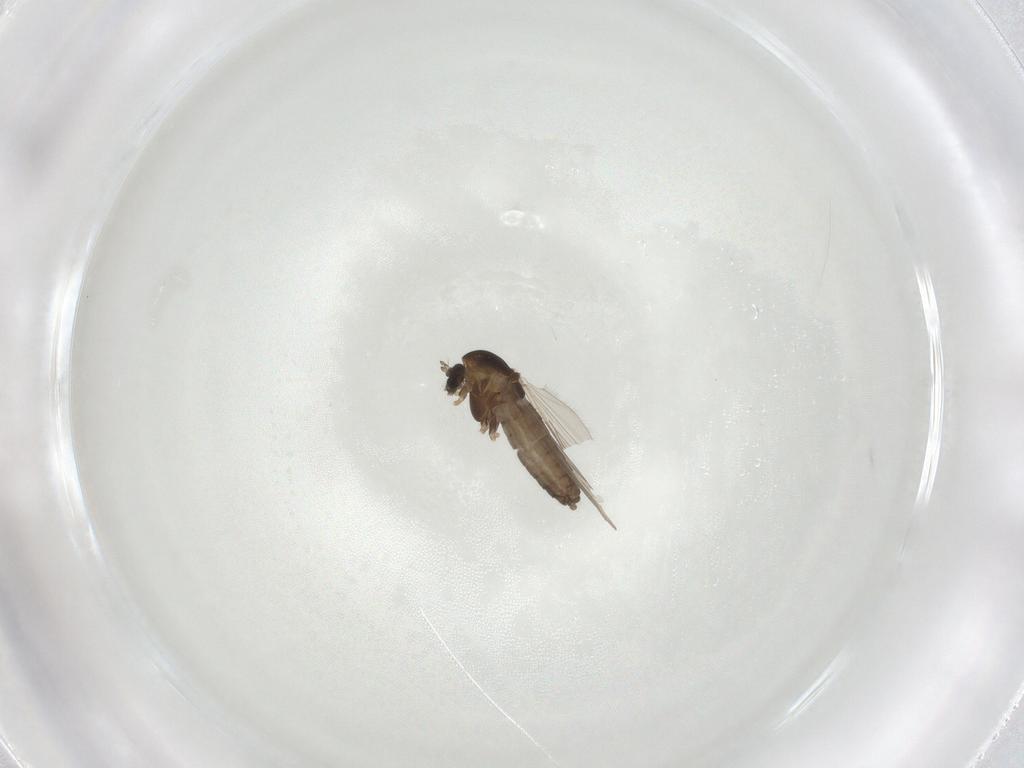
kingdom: Animalia
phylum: Arthropoda
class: Insecta
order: Diptera
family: Chironomidae
